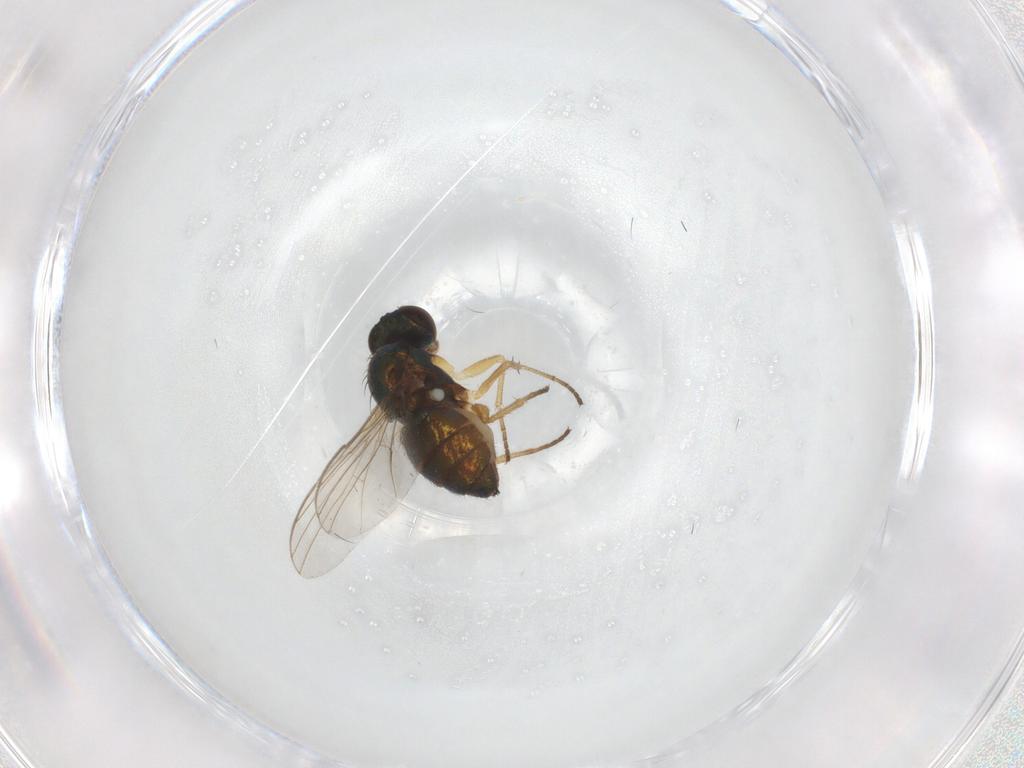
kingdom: Animalia
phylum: Arthropoda
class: Insecta
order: Diptera
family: Dolichopodidae
